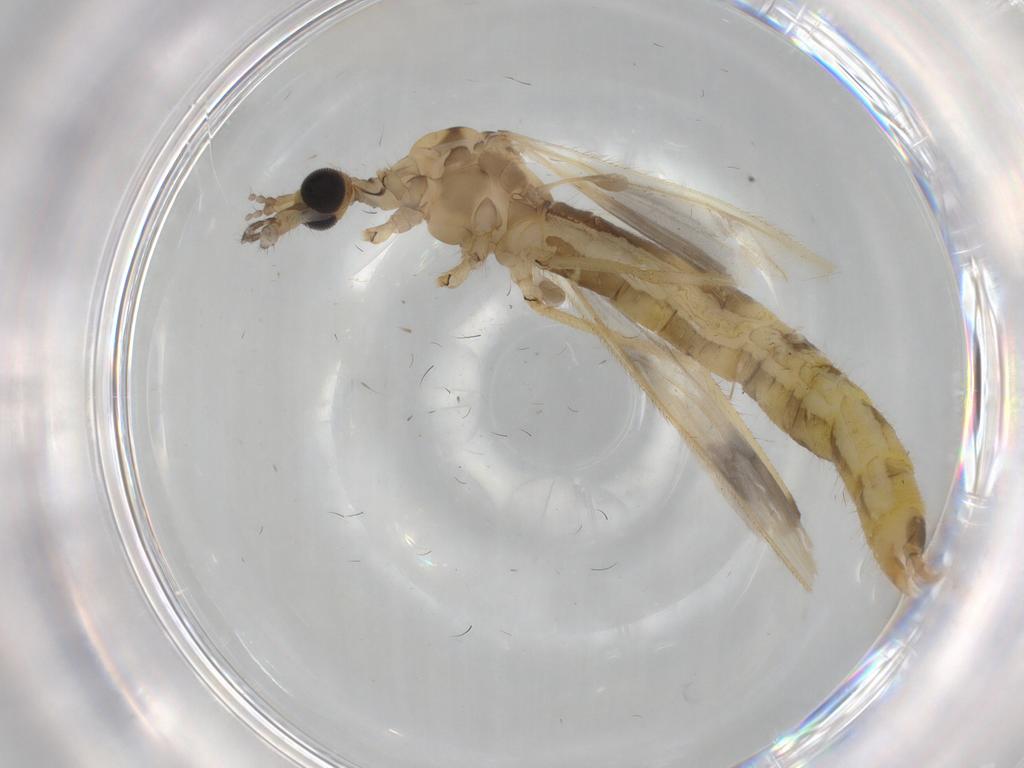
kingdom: Animalia
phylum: Arthropoda
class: Insecta
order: Diptera
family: Limoniidae
